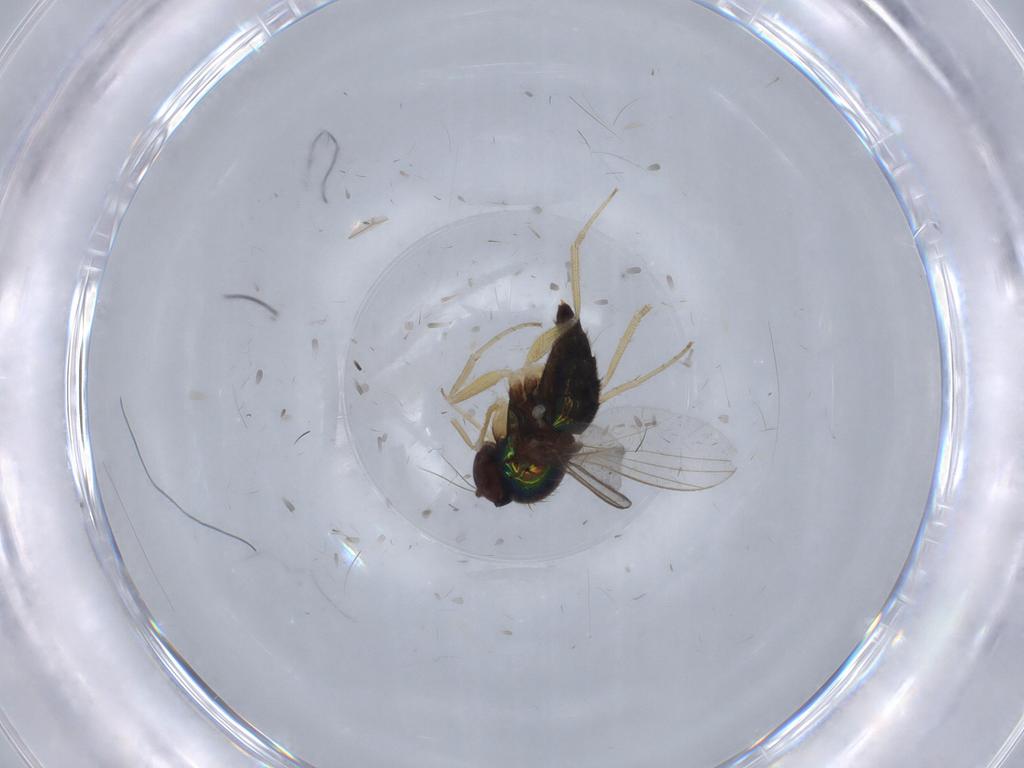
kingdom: Animalia
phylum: Arthropoda
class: Insecta
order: Diptera
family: Dolichopodidae
